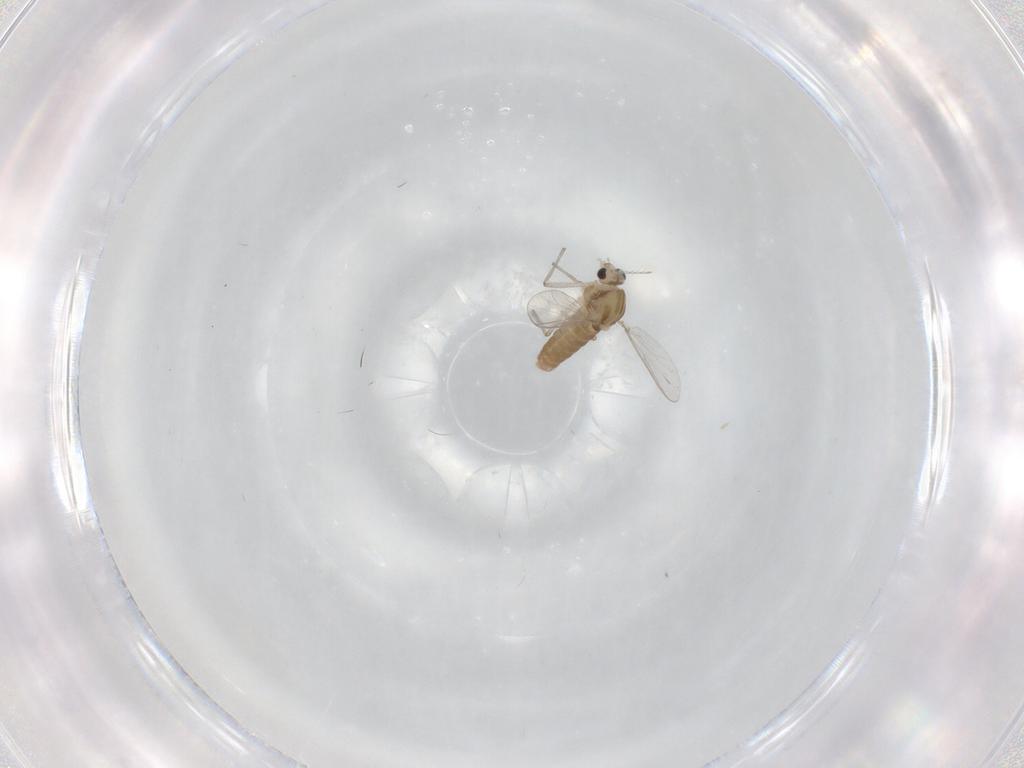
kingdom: Animalia
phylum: Arthropoda
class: Insecta
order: Diptera
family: Chironomidae
